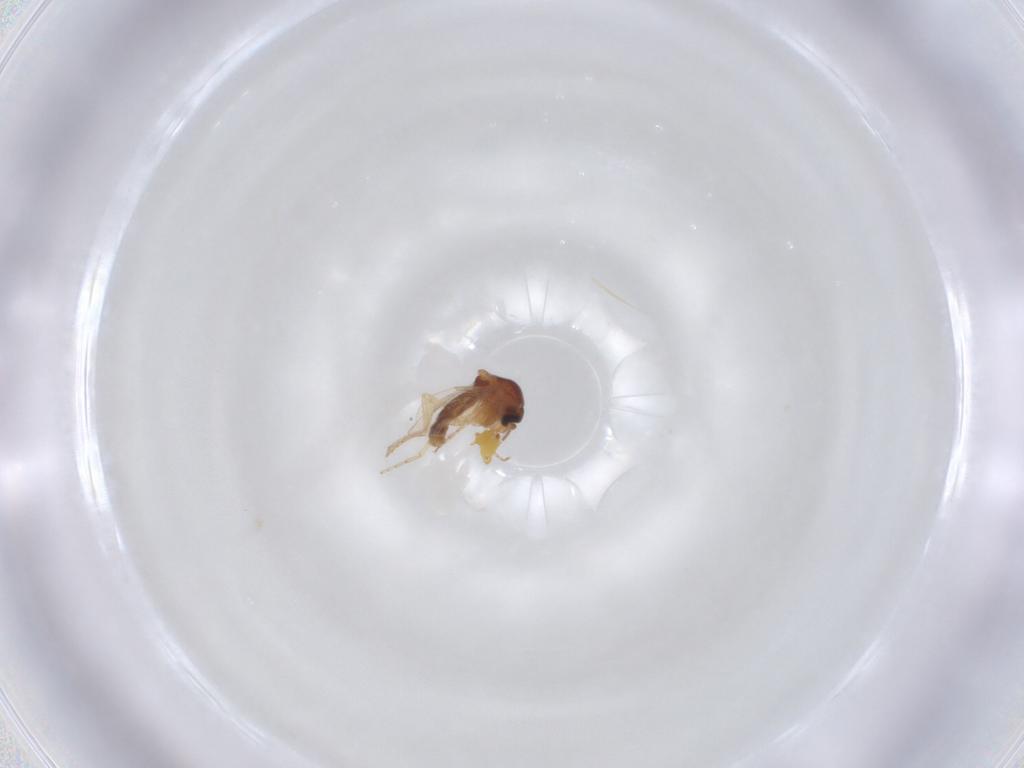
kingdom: Animalia
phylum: Arthropoda
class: Insecta
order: Diptera
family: Ceratopogonidae
